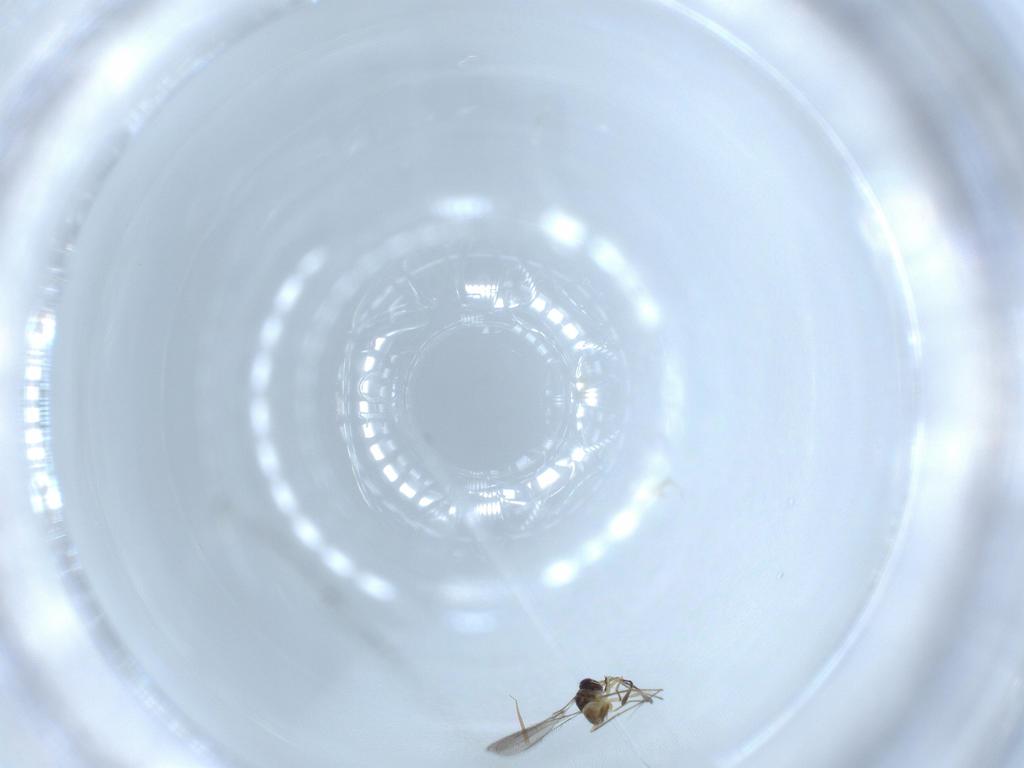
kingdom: Animalia
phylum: Arthropoda
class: Insecta
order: Hymenoptera
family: Mymaridae
